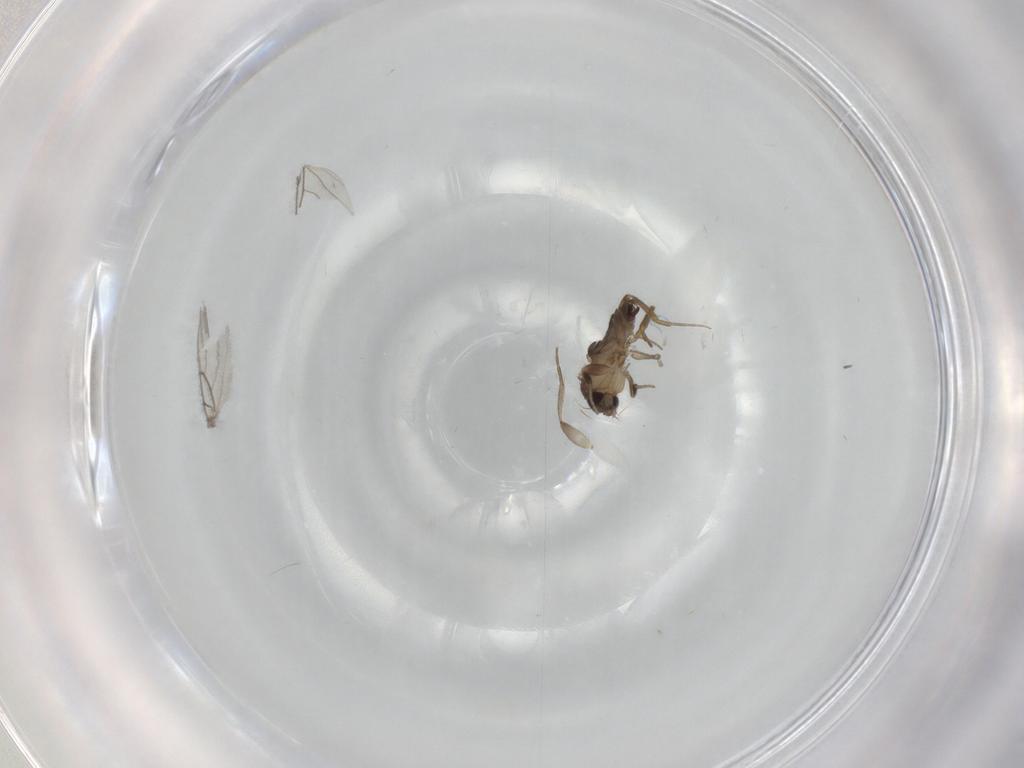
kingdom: Animalia
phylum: Arthropoda
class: Insecta
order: Diptera
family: Phoridae
